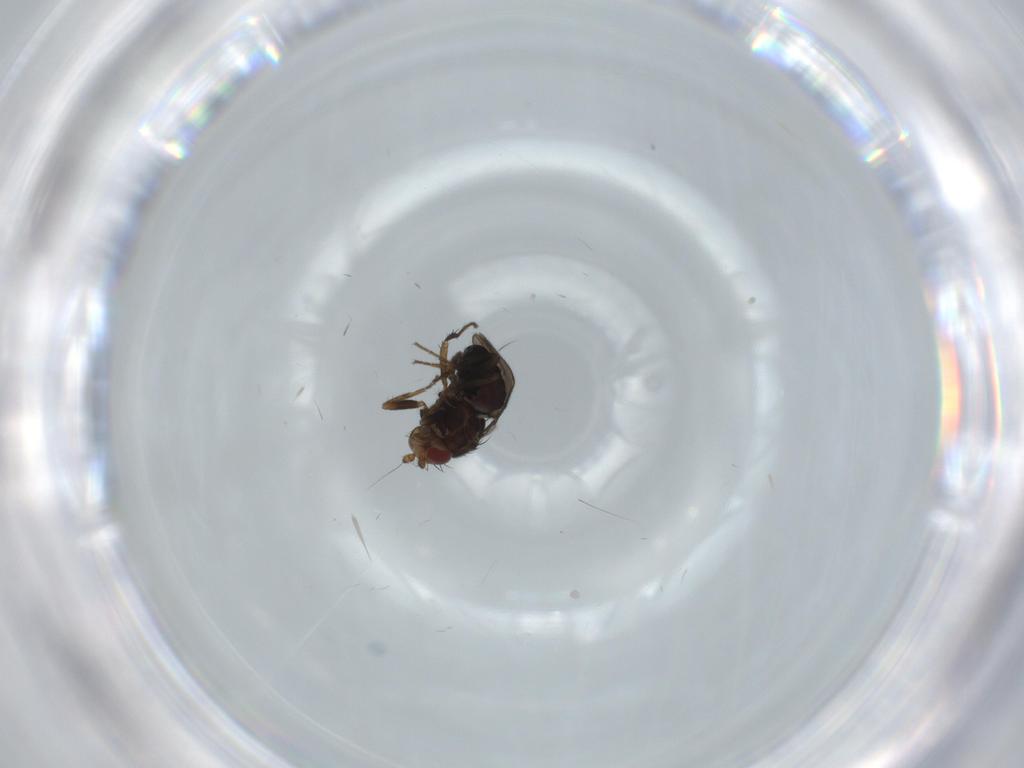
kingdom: Animalia
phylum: Arthropoda
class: Insecta
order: Diptera
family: Sphaeroceridae
